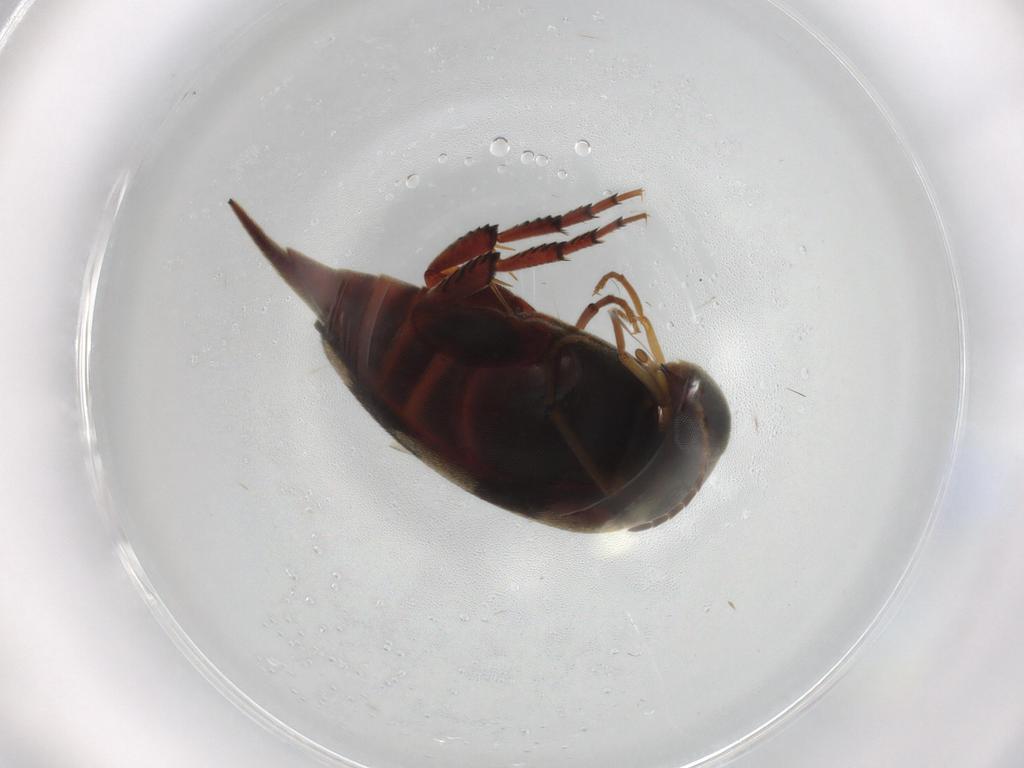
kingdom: Animalia
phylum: Arthropoda
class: Insecta
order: Coleoptera
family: Mordellidae
